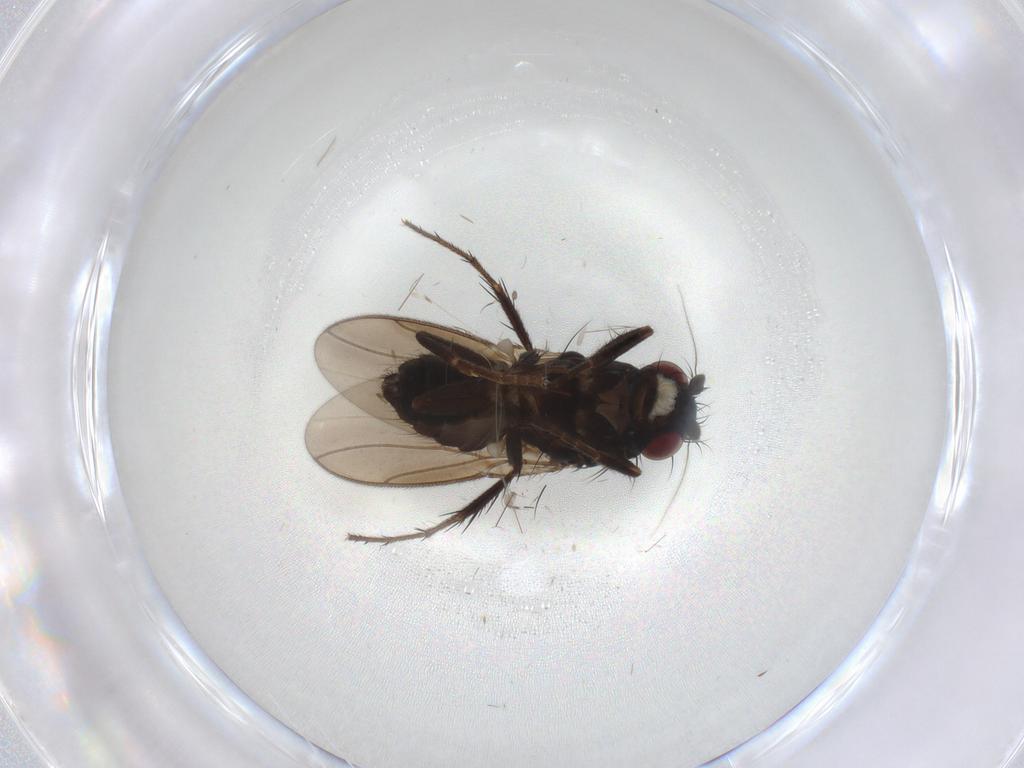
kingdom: Animalia
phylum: Arthropoda
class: Insecta
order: Diptera
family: Sphaeroceridae
